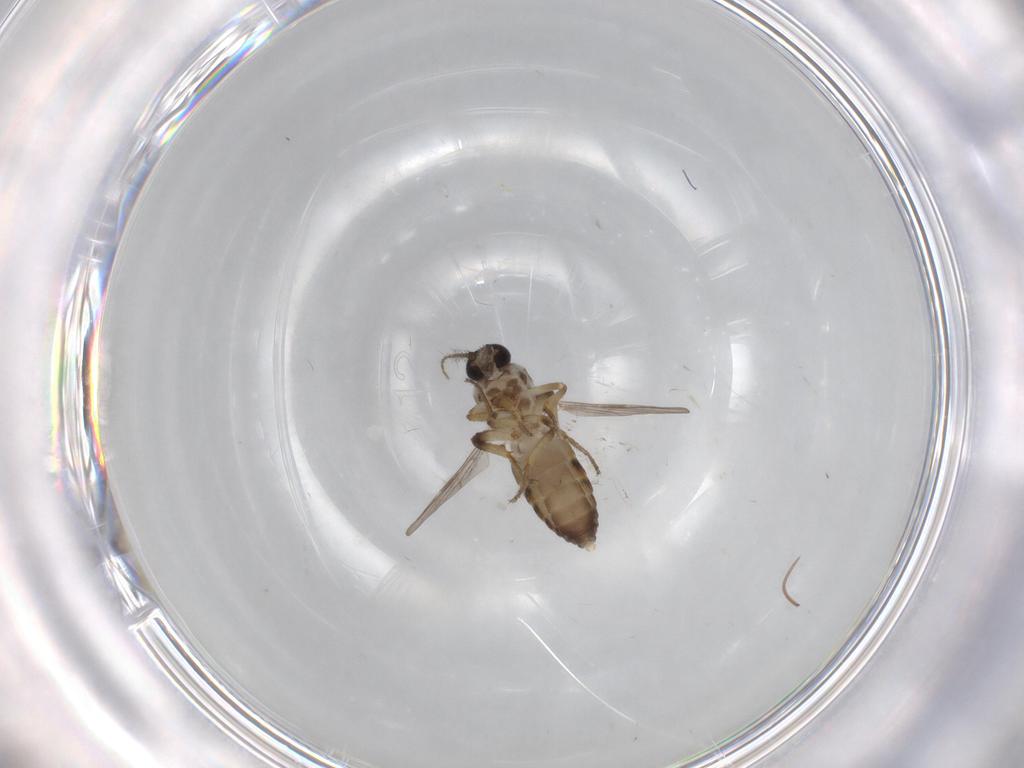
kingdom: Animalia
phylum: Arthropoda
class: Insecta
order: Diptera
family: Ceratopogonidae
